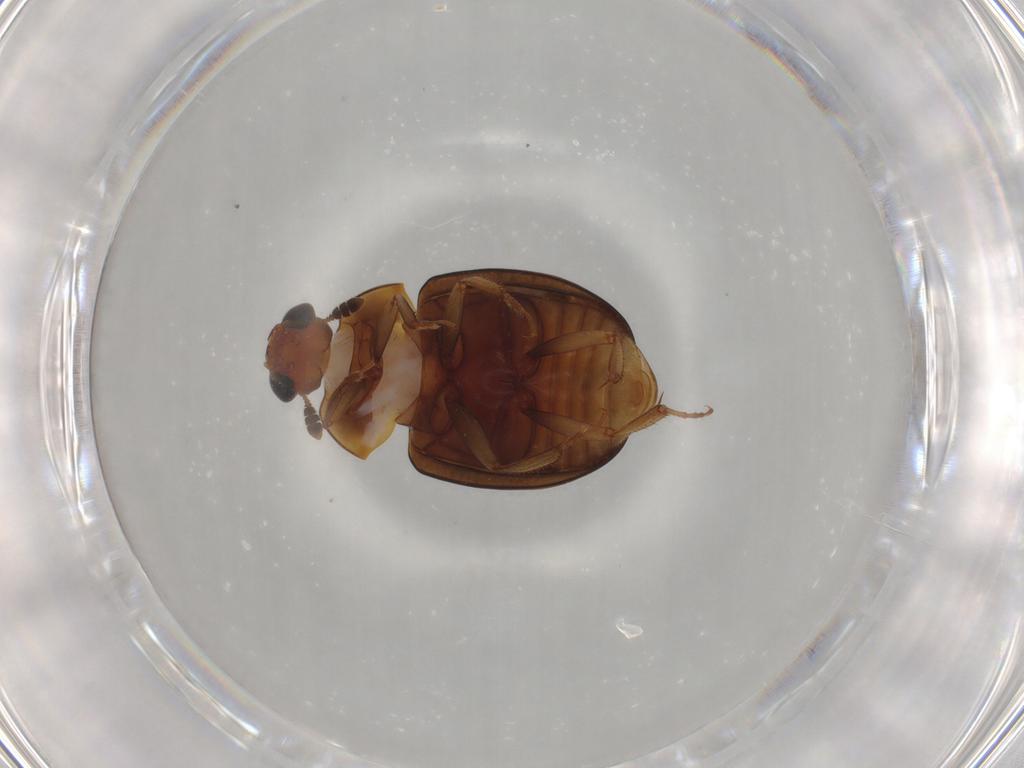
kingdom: Animalia
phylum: Arthropoda
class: Insecta
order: Coleoptera
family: Nitidulidae
